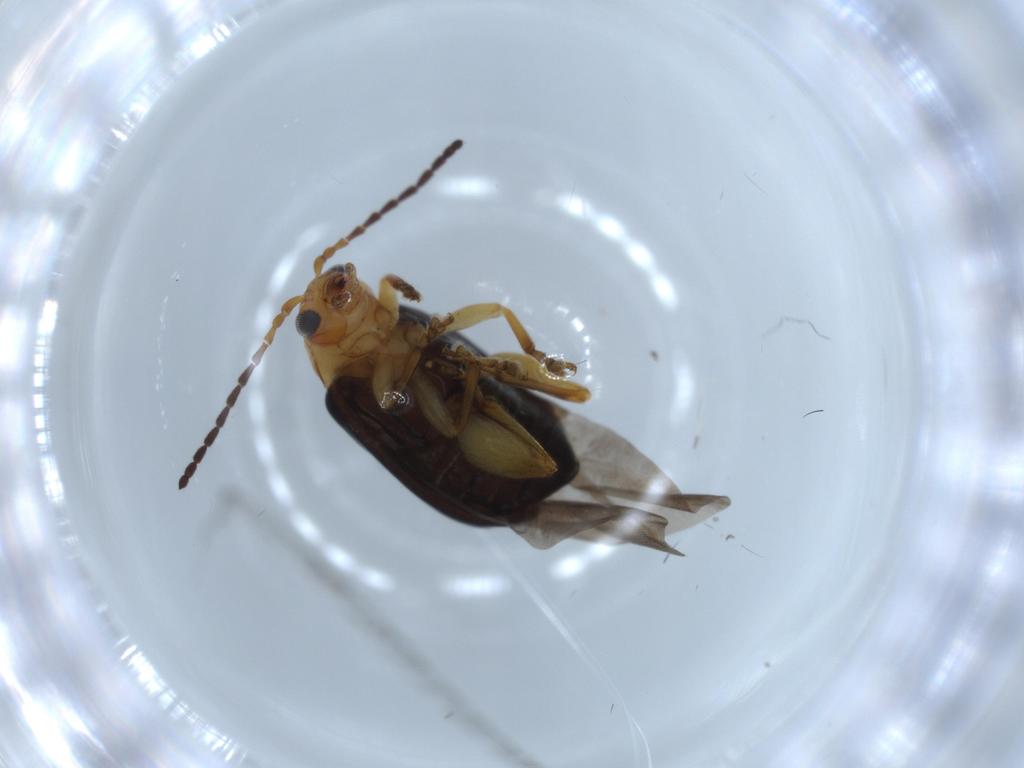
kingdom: Animalia
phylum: Arthropoda
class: Insecta
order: Coleoptera
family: Chrysomelidae
